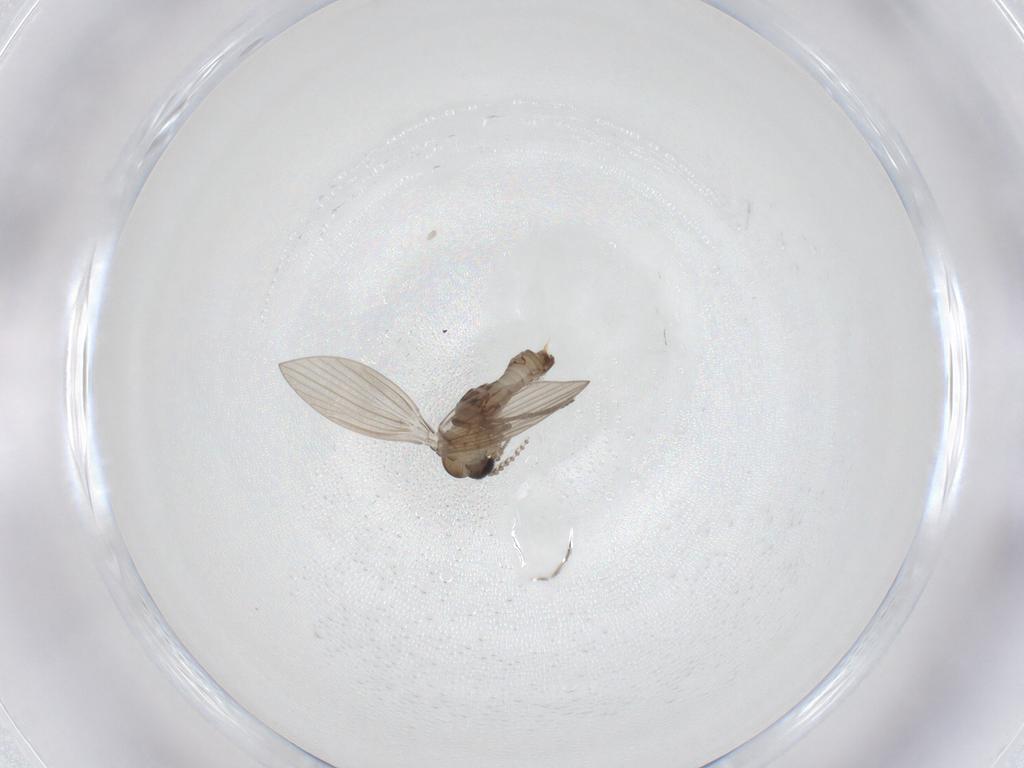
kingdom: Animalia
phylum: Arthropoda
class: Insecta
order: Diptera
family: Psychodidae
